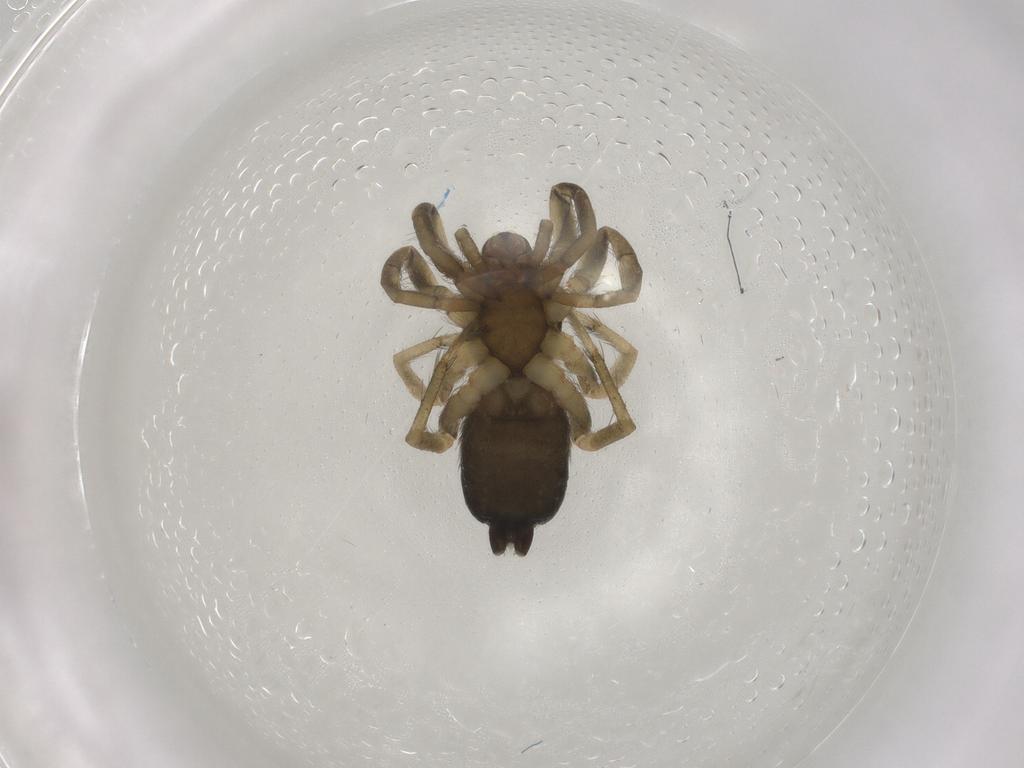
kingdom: Animalia
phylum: Arthropoda
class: Arachnida
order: Araneae
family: Gnaphosidae
